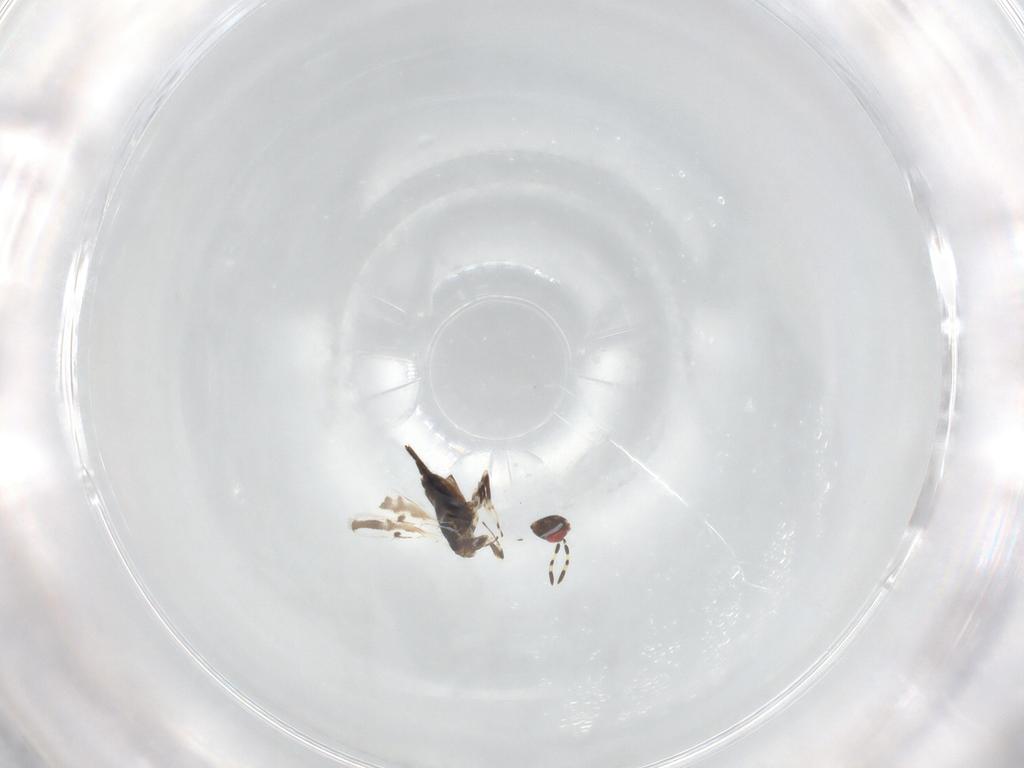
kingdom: Animalia
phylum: Arthropoda
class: Insecta
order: Hymenoptera
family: Azotidae
